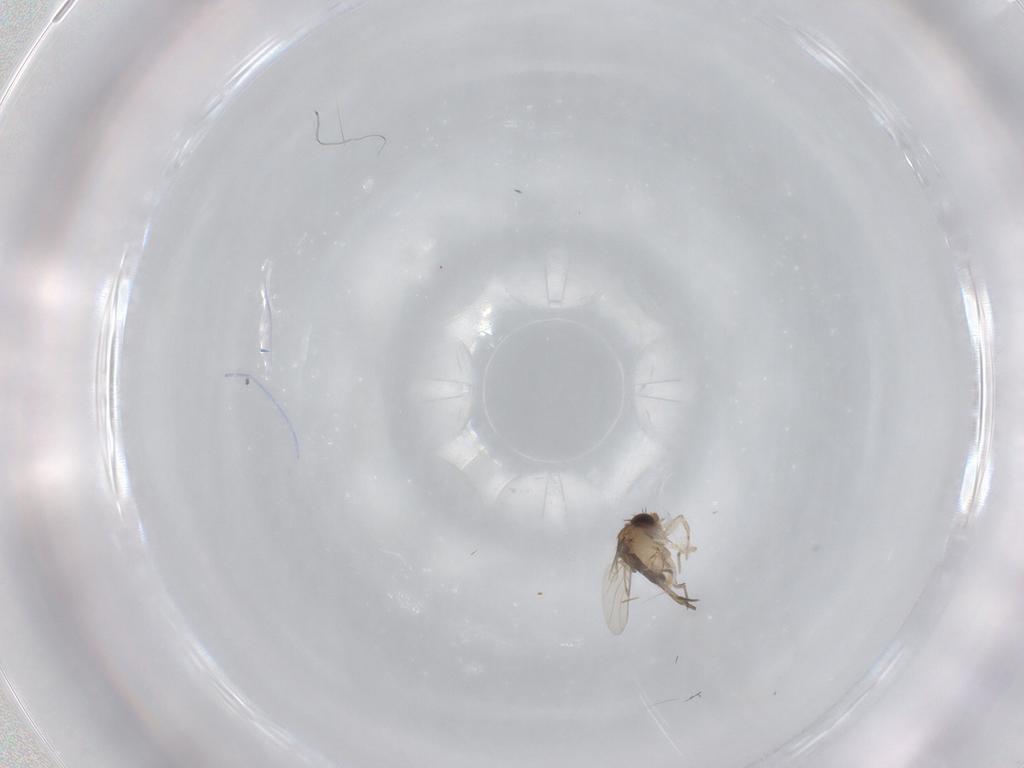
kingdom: Animalia
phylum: Arthropoda
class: Insecta
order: Diptera
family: Phoridae
